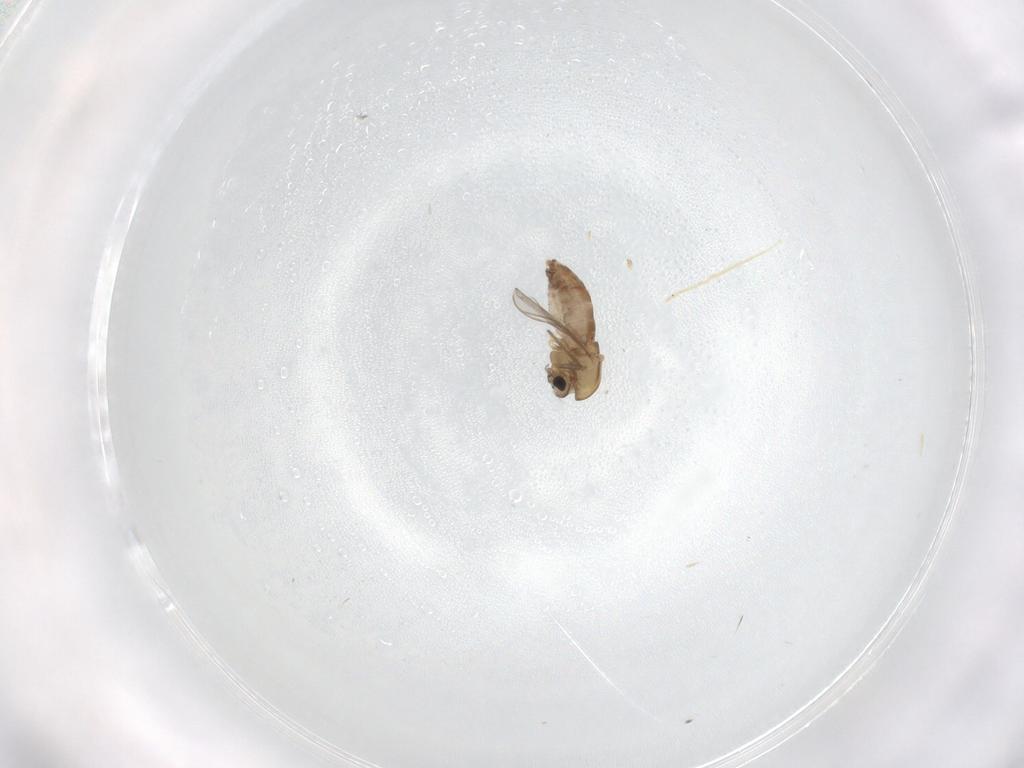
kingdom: Animalia
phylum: Arthropoda
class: Insecta
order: Diptera
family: Chironomidae
